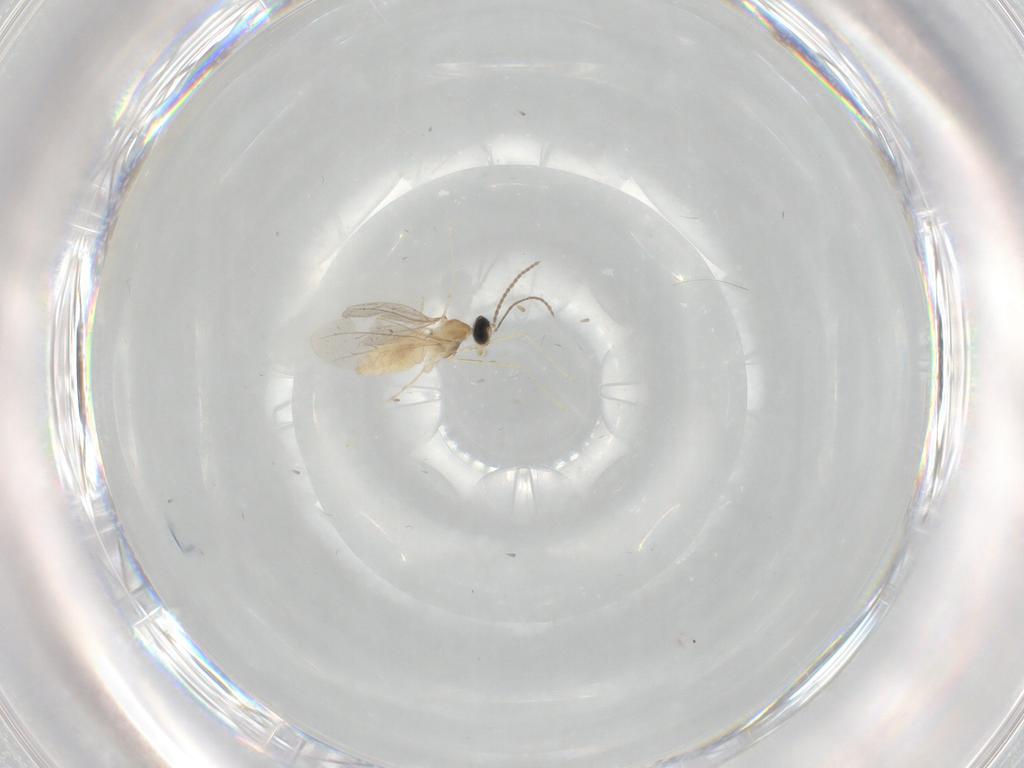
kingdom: Animalia
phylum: Arthropoda
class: Insecta
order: Diptera
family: Cecidomyiidae
